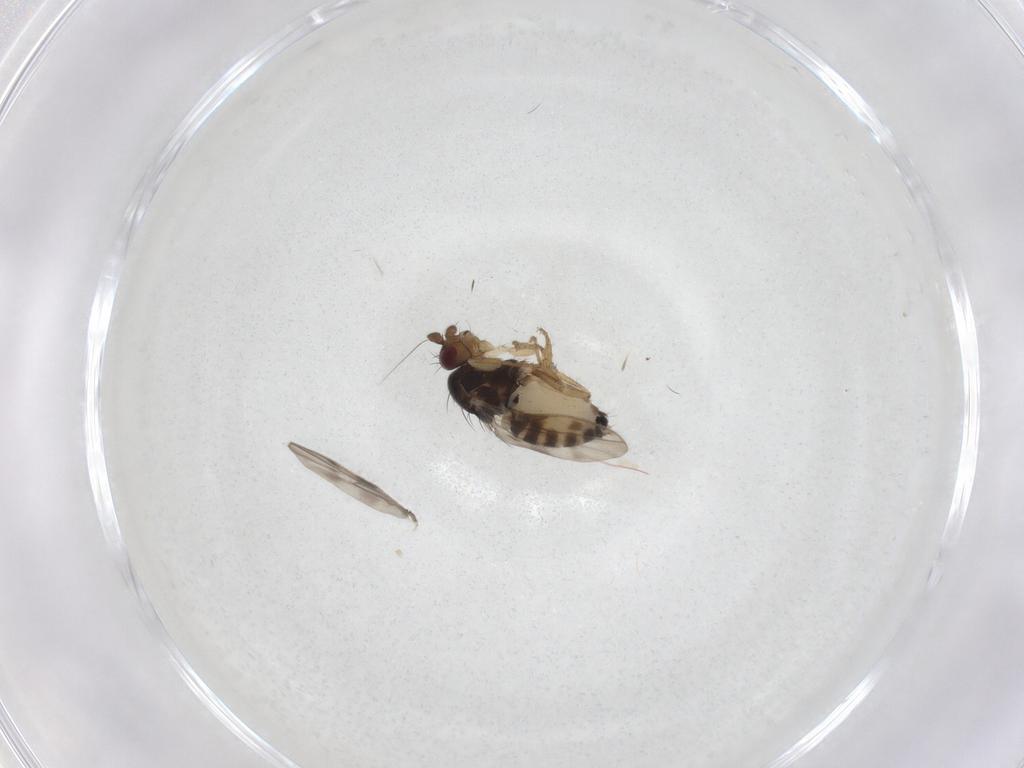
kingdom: Animalia
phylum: Arthropoda
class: Insecta
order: Diptera
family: Sphaeroceridae
